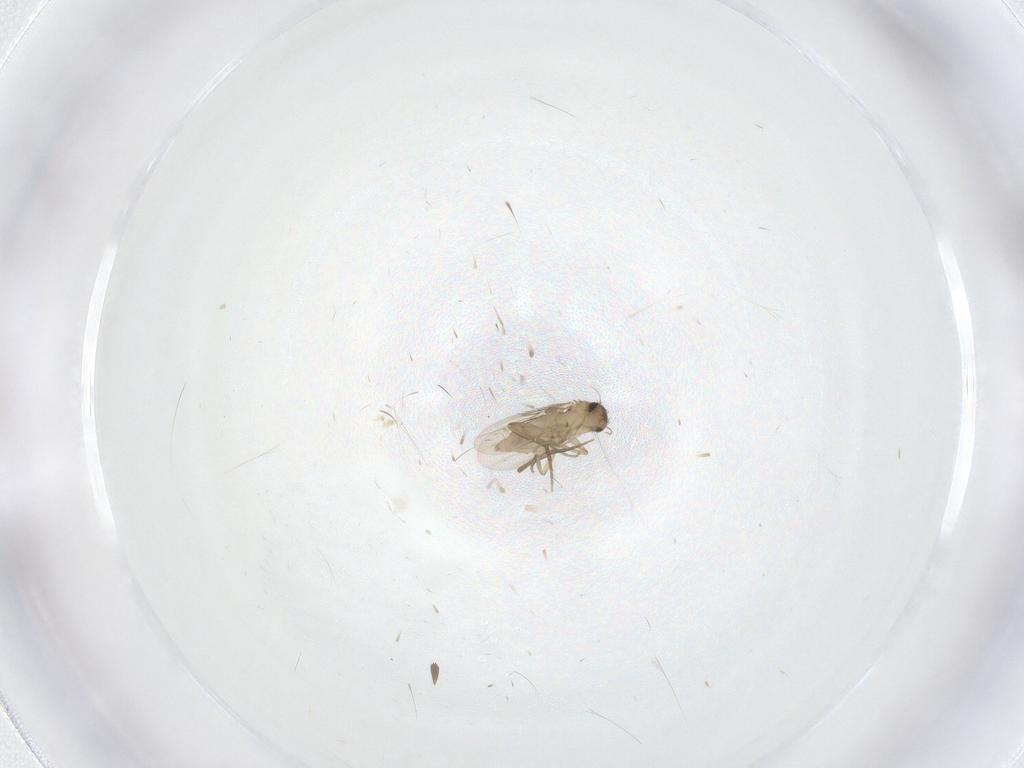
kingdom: Animalia
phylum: Arthropoda
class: Insecta
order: Diptera
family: Phoridae
